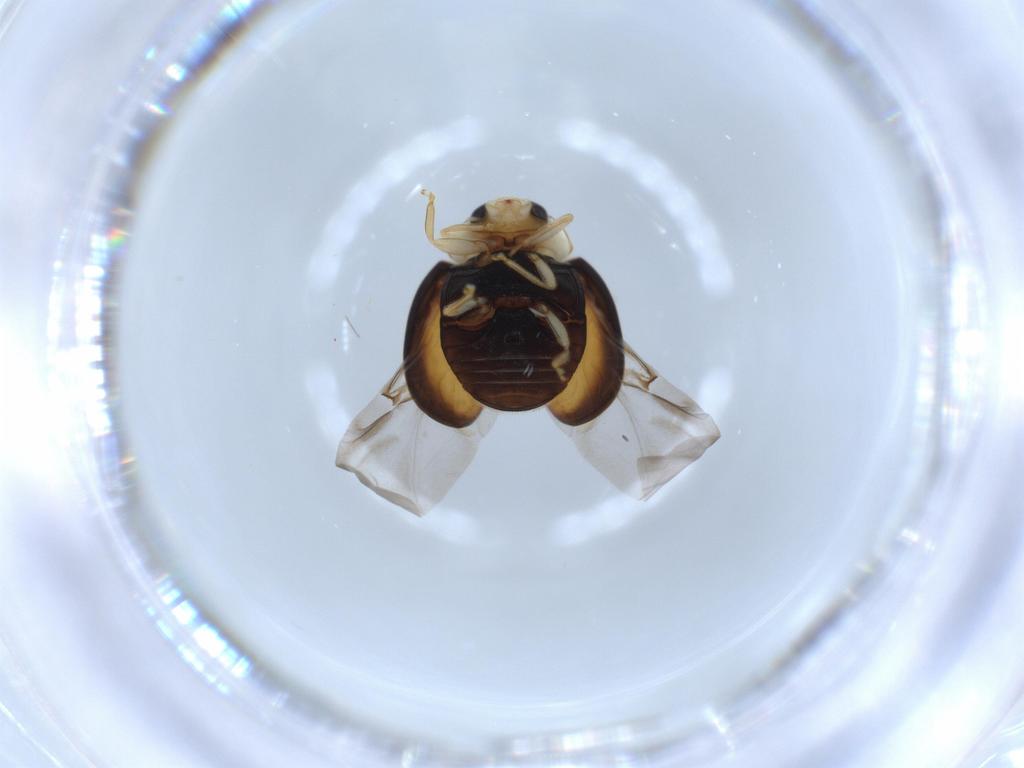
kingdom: Animalia
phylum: Arthropoda
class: Insecta
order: Coleoptera
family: Coccinellidae
